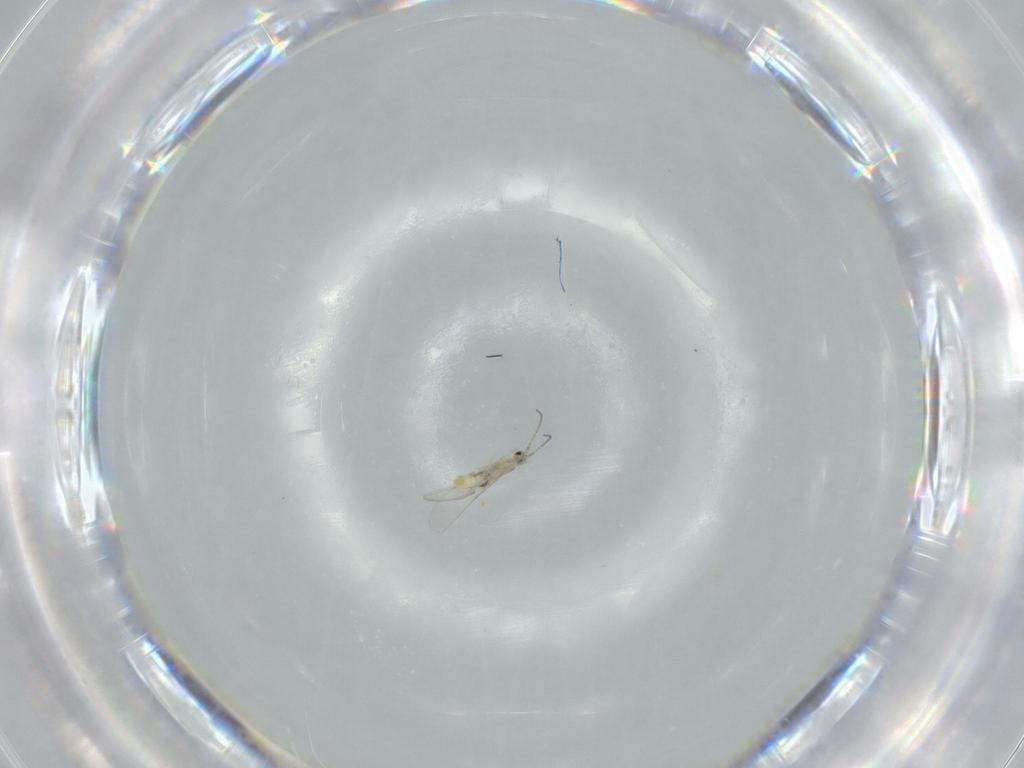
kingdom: Animalia
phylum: Arthropoda
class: Insecta
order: Diptera
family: Cecidomyiidae
